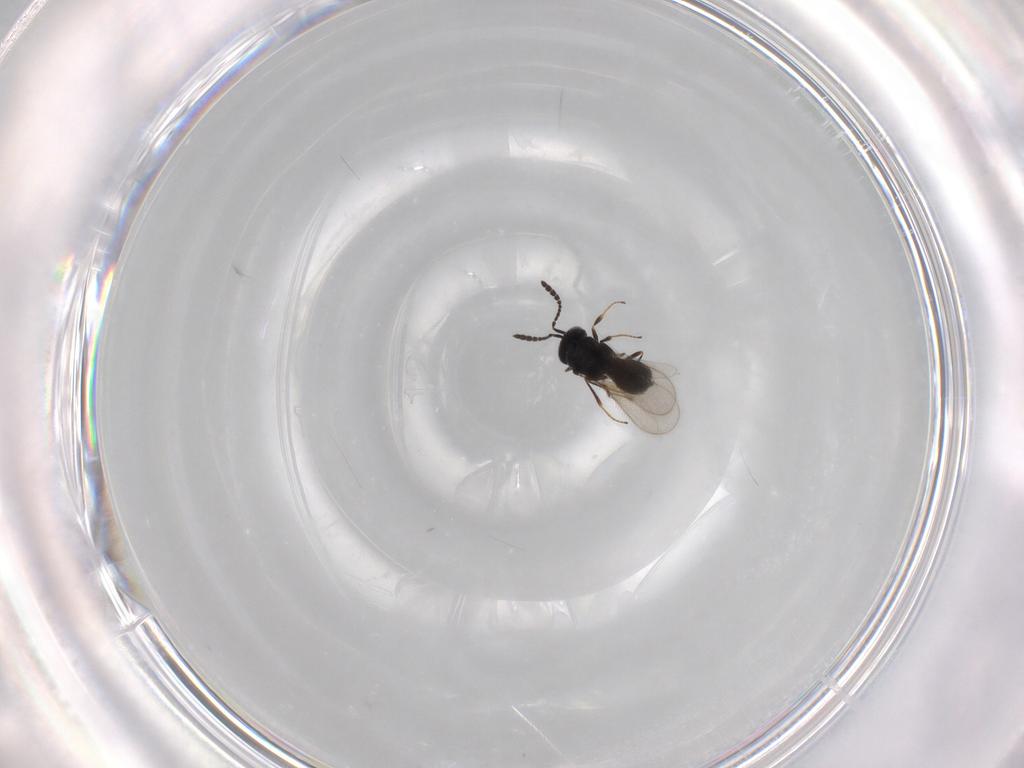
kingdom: Animalia
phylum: Arthropoda
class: Insecta
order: Hymenoptera
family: Scelionidae
